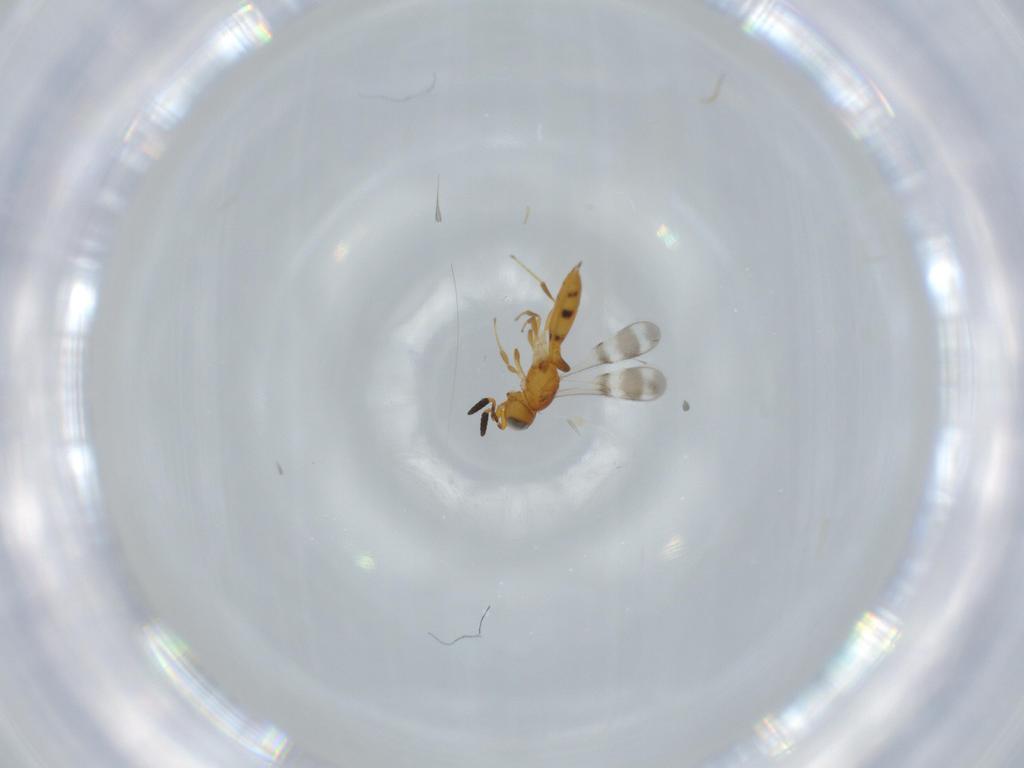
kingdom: Animalia
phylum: Arthropoda
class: Insecta
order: Hymenoptera
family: Scelionidae
